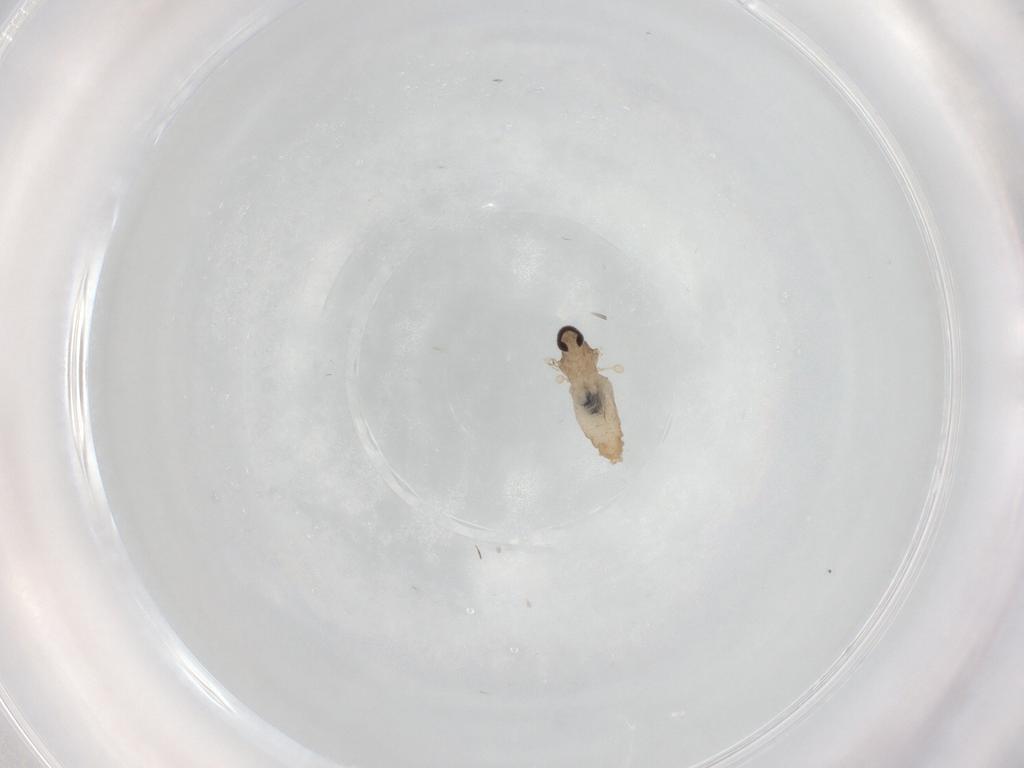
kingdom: Animalia
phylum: Arthropoda
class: Insecta
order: Diptera
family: Cecidomyiidae
